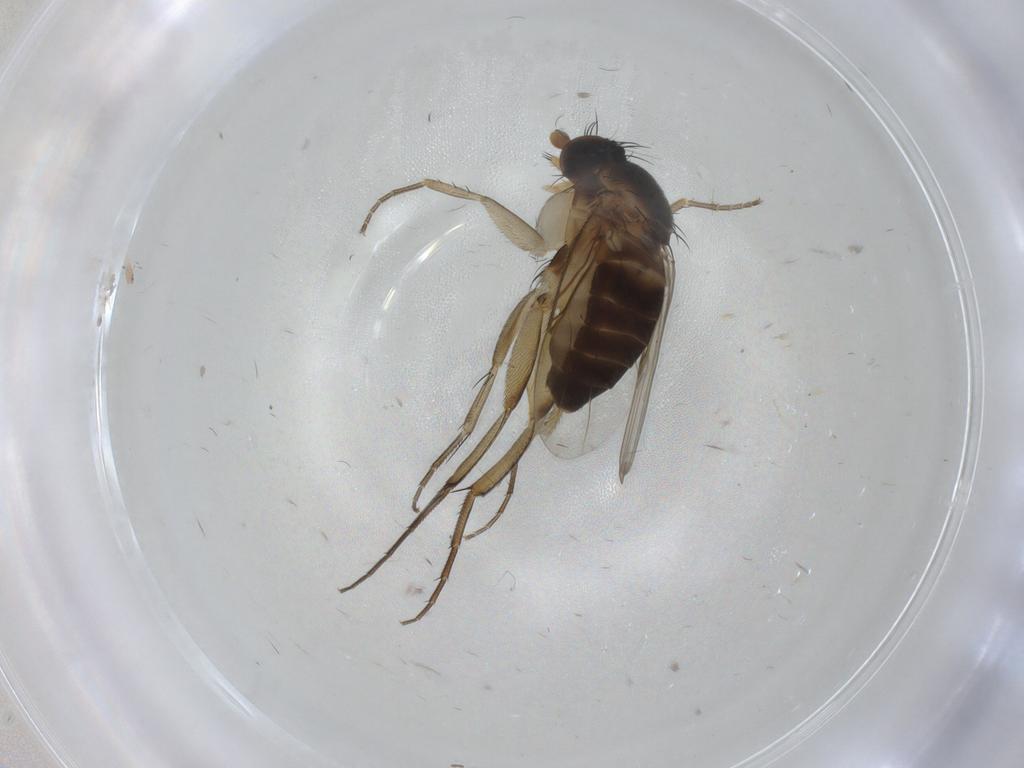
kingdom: Animalia
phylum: Arthropoda
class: Insecta
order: Diptera
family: Phoridae
